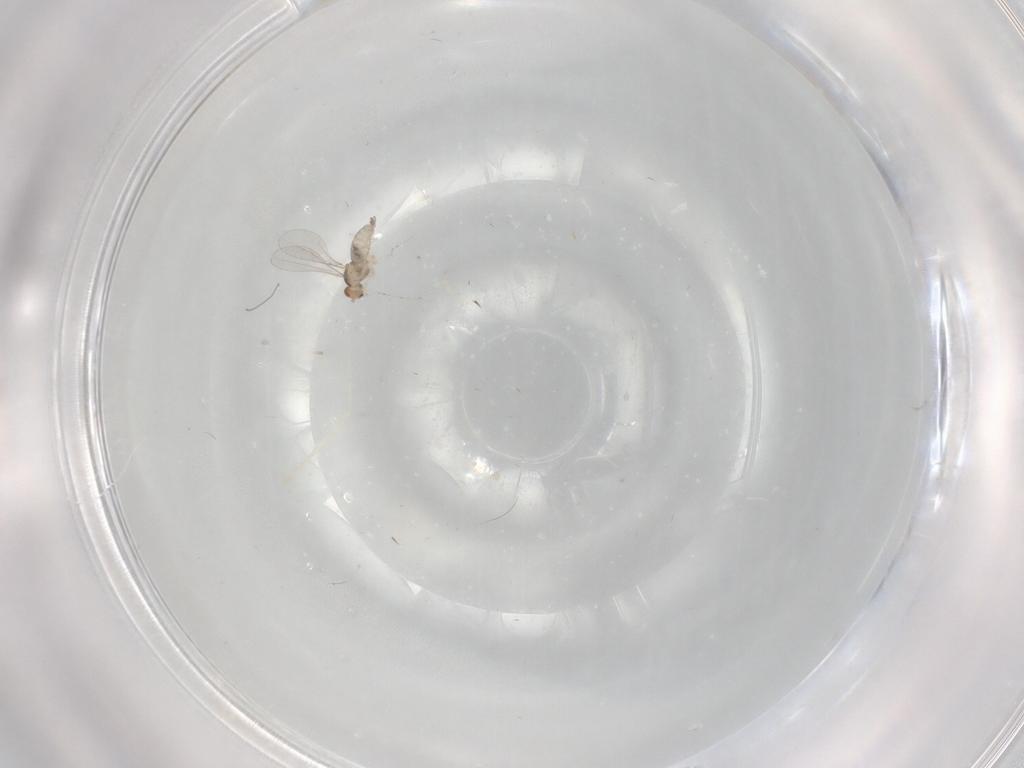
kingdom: Animalia
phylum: Arthropoda
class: Insecta
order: Diptera
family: Cecidomyiidae
